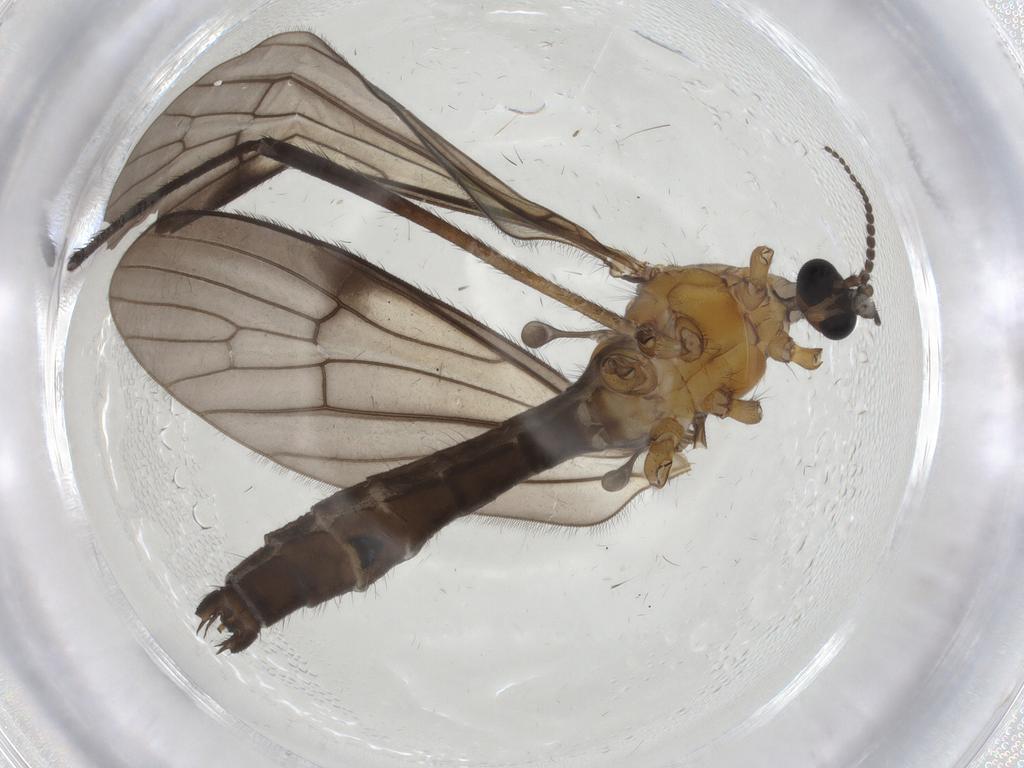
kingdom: Animalia
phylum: Arthropoda
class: Insecta
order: Diptera
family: Limoniidae
